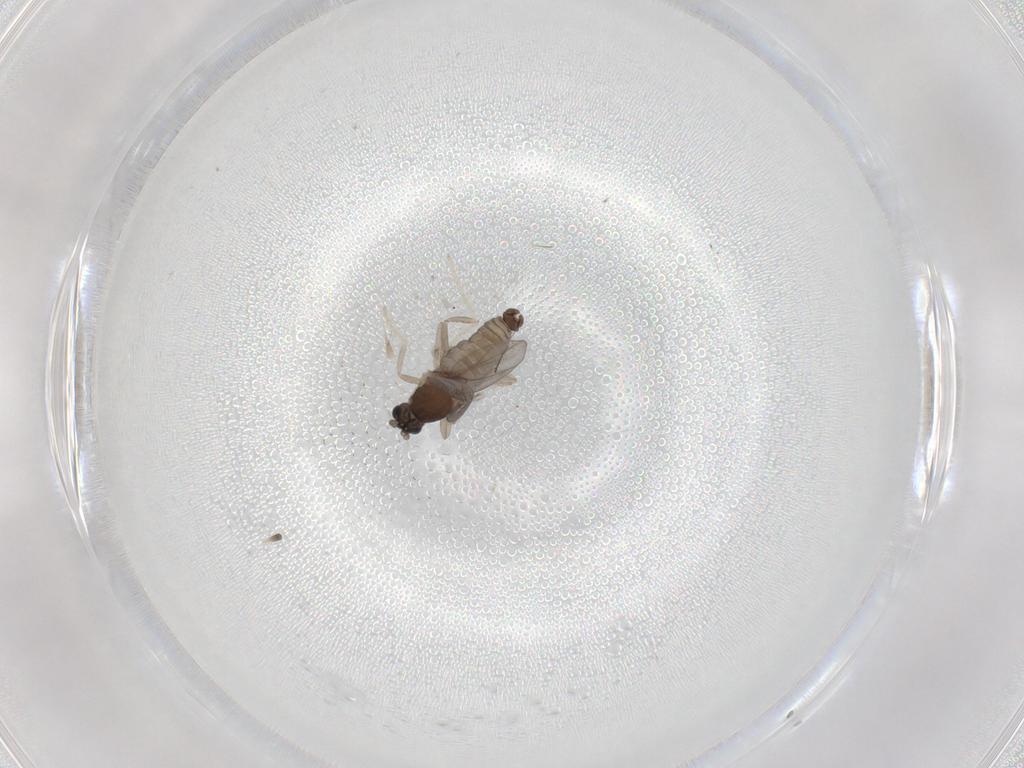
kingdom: Animalia
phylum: Arthropoda
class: Insecta
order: Diptera
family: Cecidomyiidae
